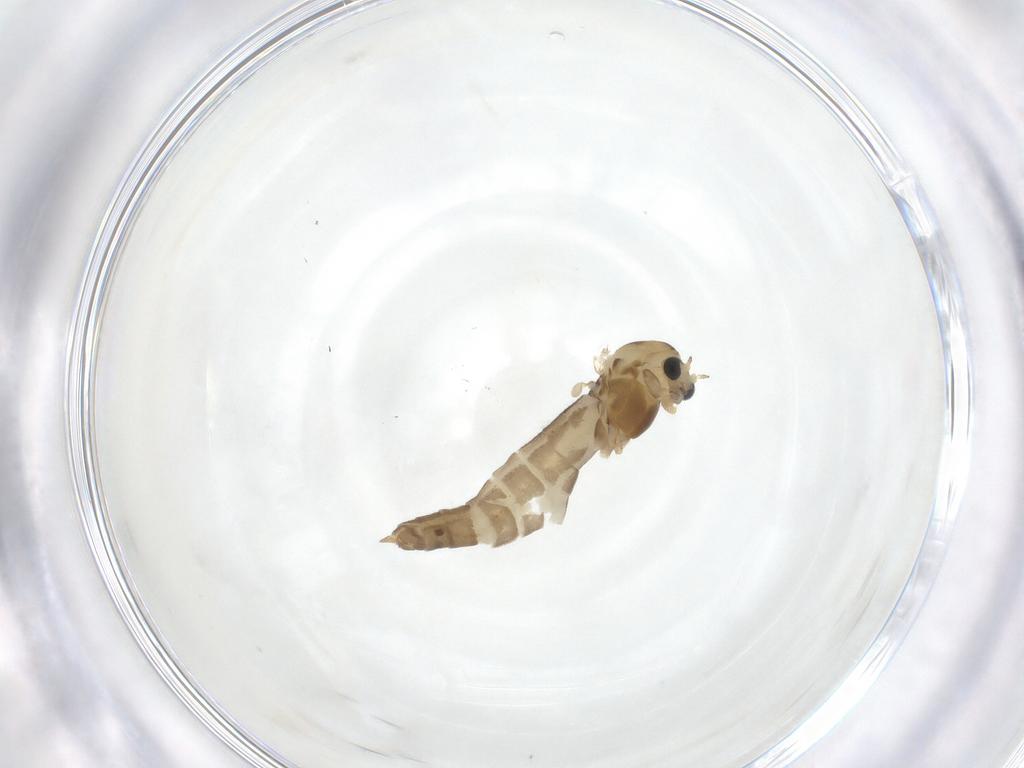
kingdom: Animalia
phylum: Arthropoda
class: Insecta
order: Diptera
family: Chironomidae
